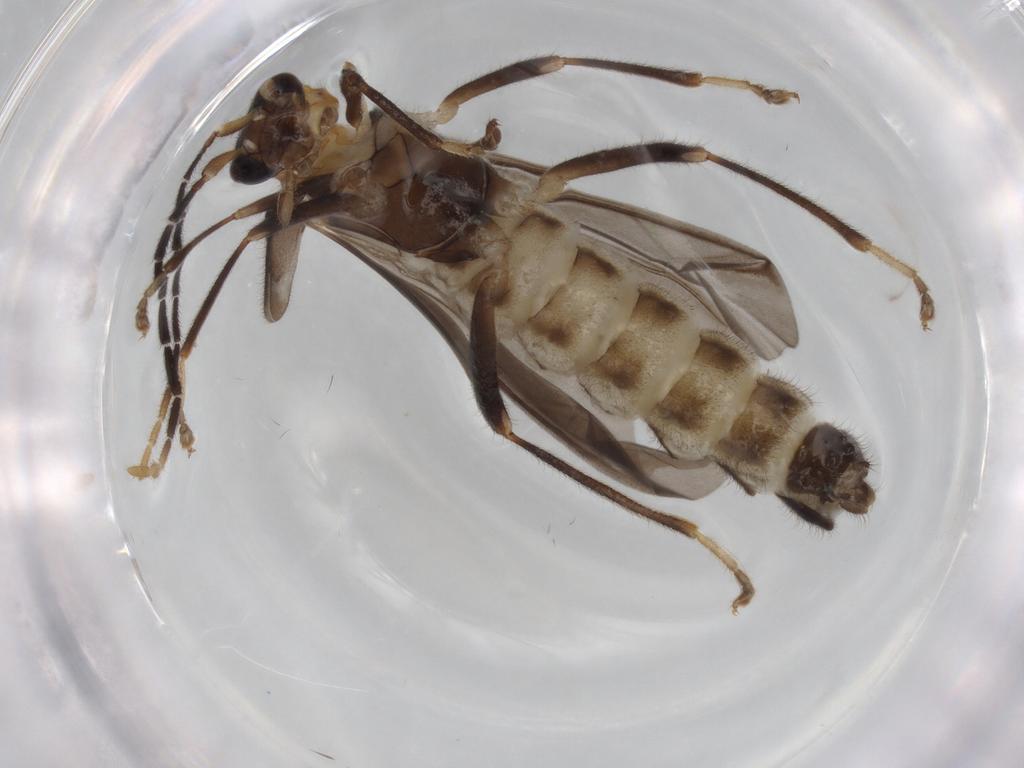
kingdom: Animalia
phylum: Arthropoda
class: Insecta
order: Coleoptera
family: Cantharidae
